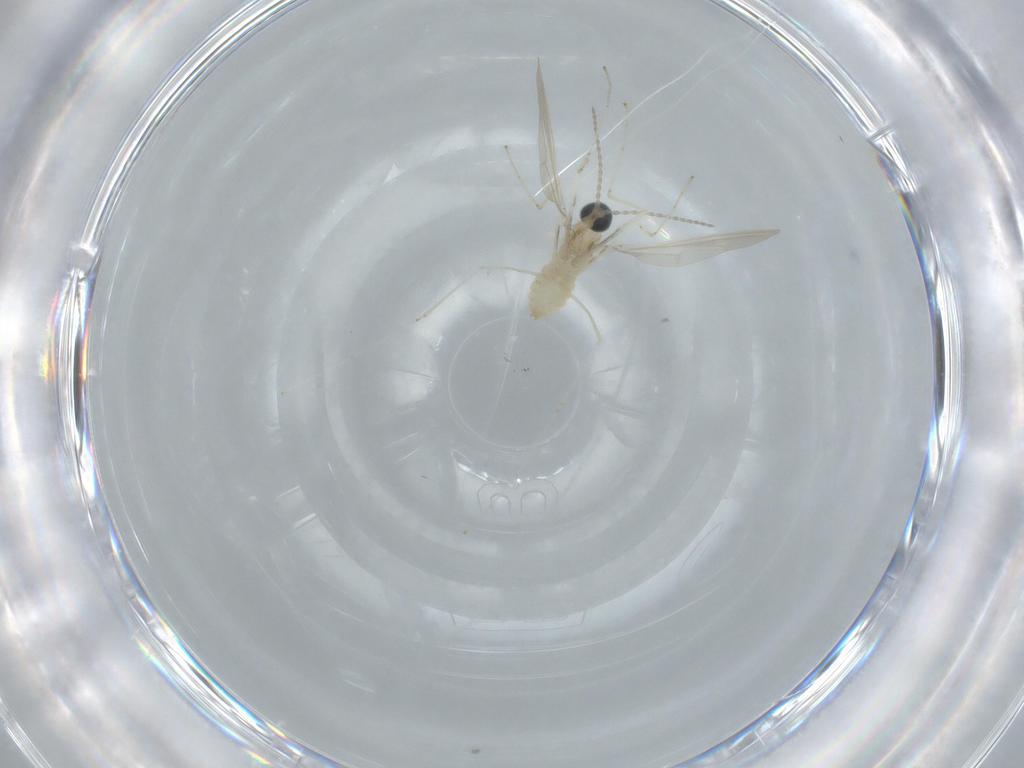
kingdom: Animalia
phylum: Arthropoda
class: Insecta
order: Diptera
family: Cecidomyiidae
